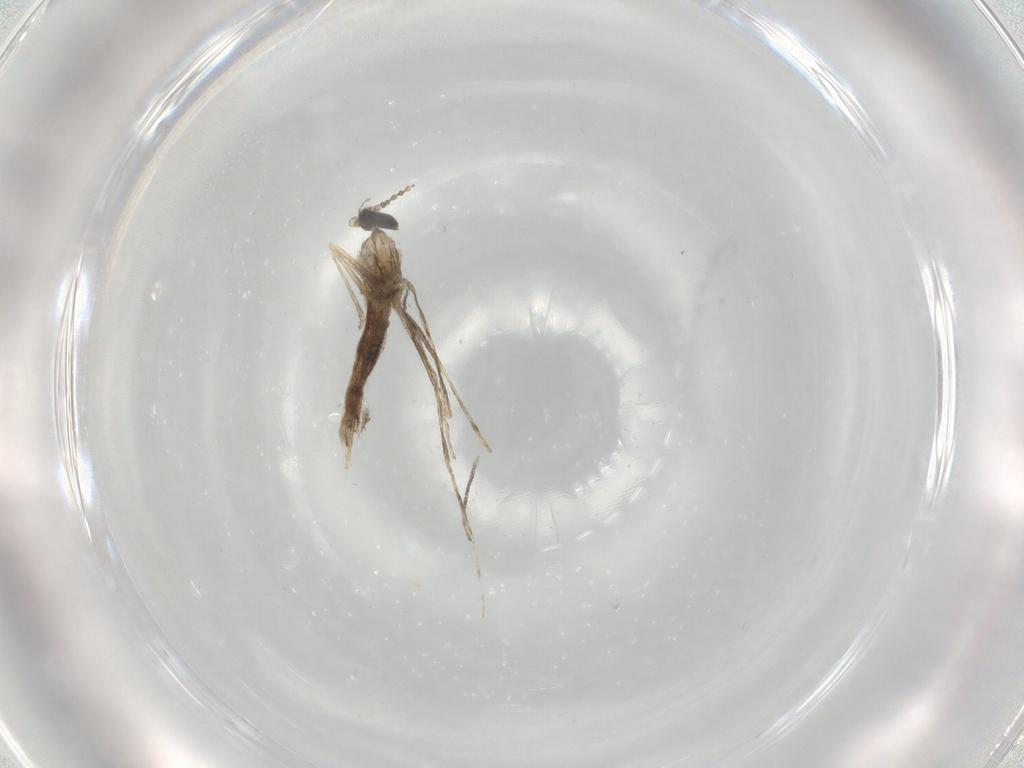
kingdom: Animalia
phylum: Arthropoda
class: Insecta
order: Diptera
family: Cecidomyiidae
